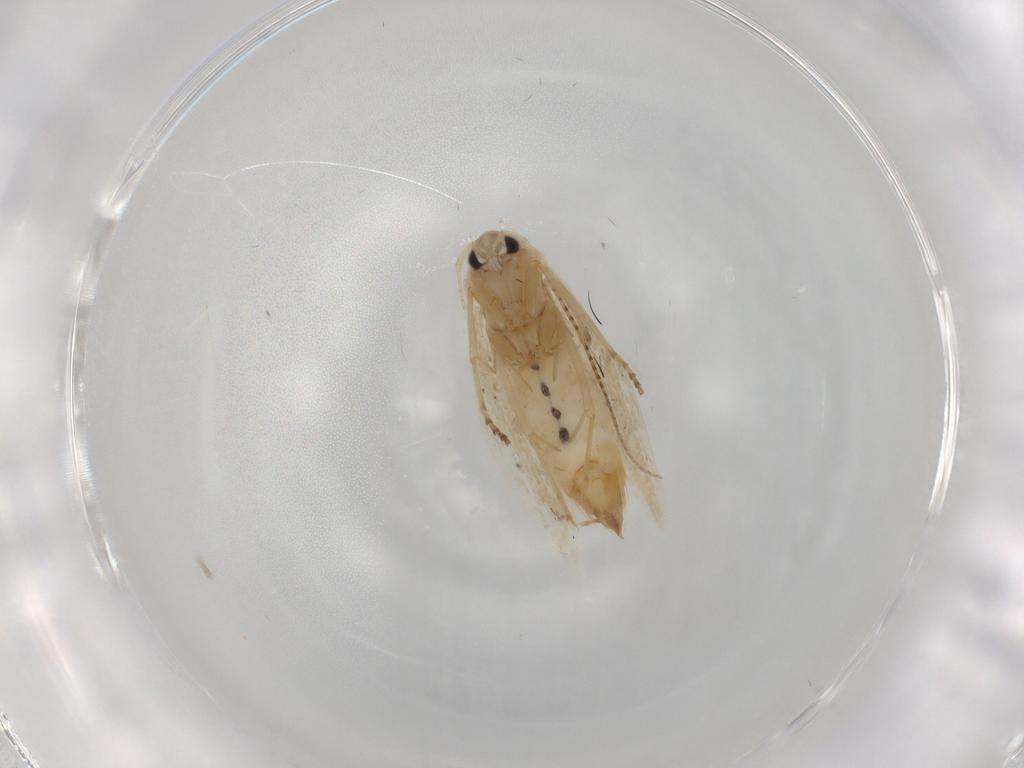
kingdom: Animalia
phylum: Arthropoda
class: Insecta
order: Lepidoptera
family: Bucculatricidae
